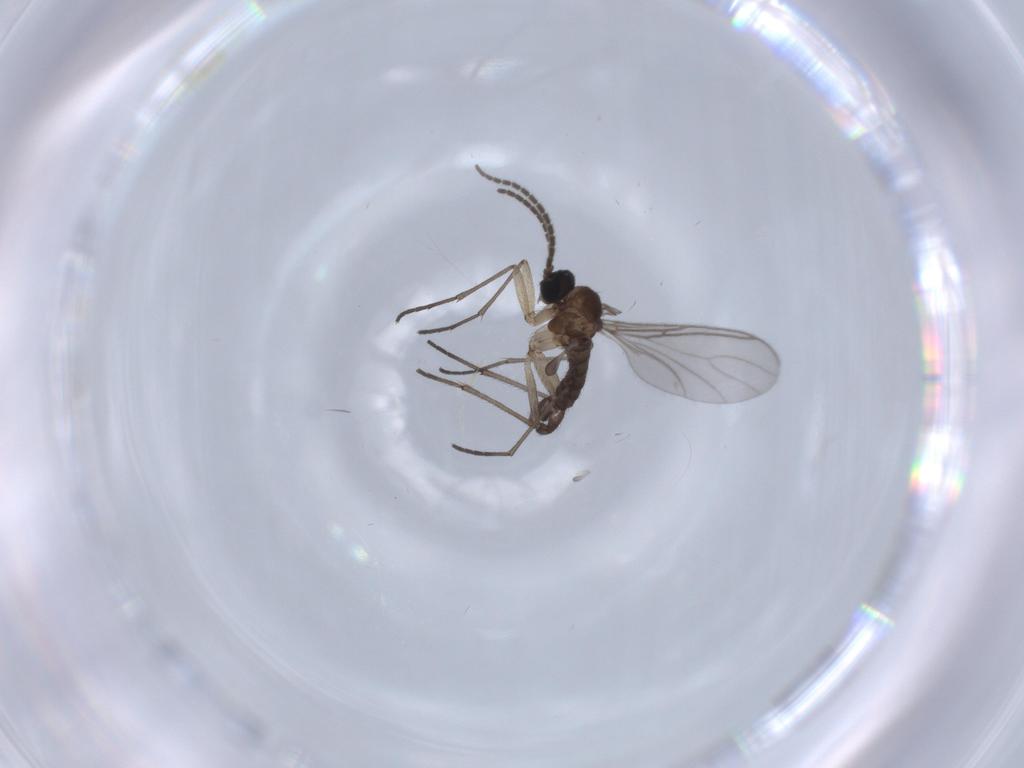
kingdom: Animalia
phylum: Arthropoda
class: Insecta
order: Diptera
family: Sciaridae
